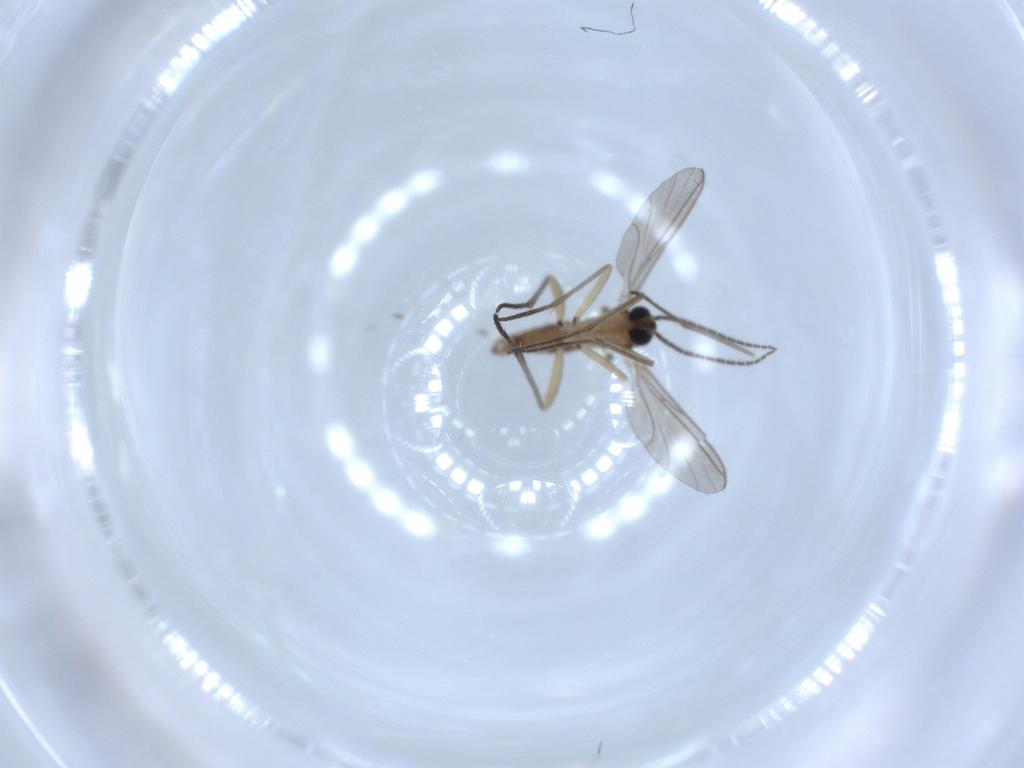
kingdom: Animalia
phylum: Arthropoda
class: Insecta
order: Diptera
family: Sciaridae
